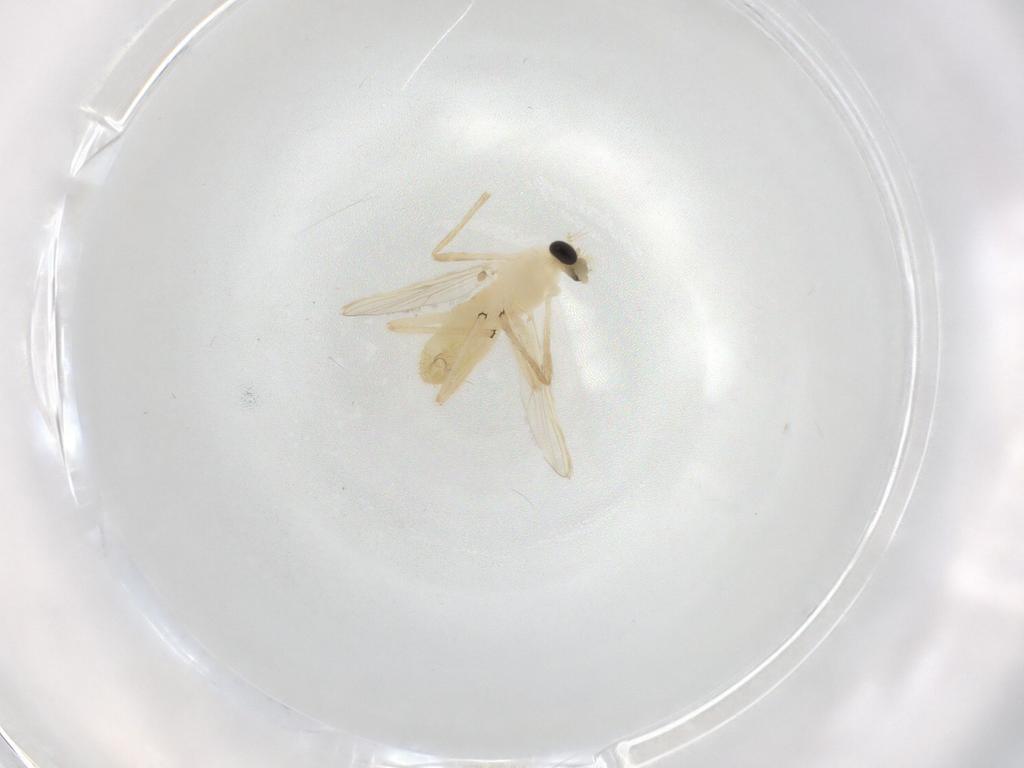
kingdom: Animalia
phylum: Arthropoda
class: Insecta
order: Diptera
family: Chironomidae
